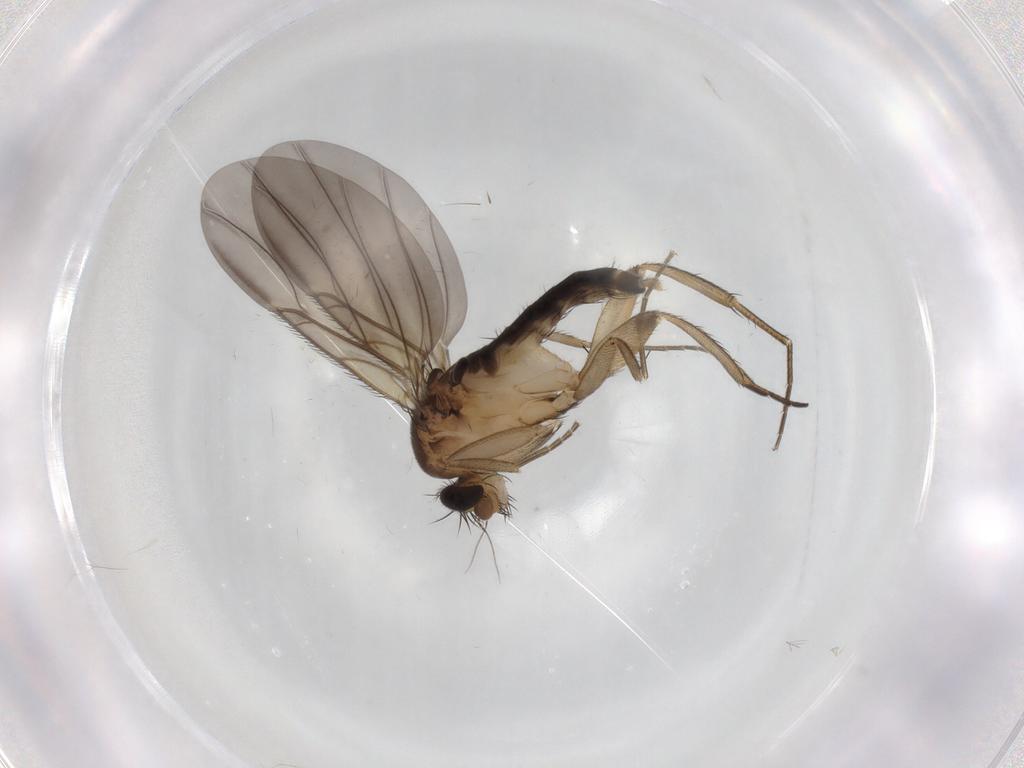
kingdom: Animalia
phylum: Arthropoda
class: Insecta
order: Diptera
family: Phoridae
